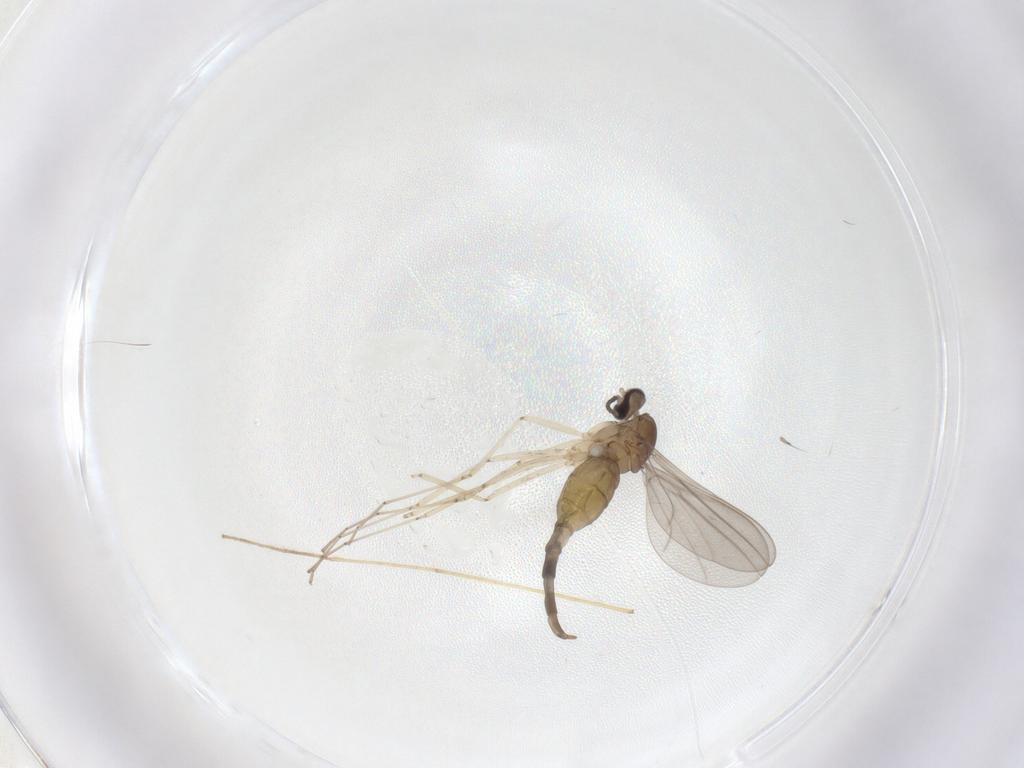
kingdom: Animalia
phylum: Arthropoda
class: Insecta
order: Diptera
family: Cecidomyiidae
